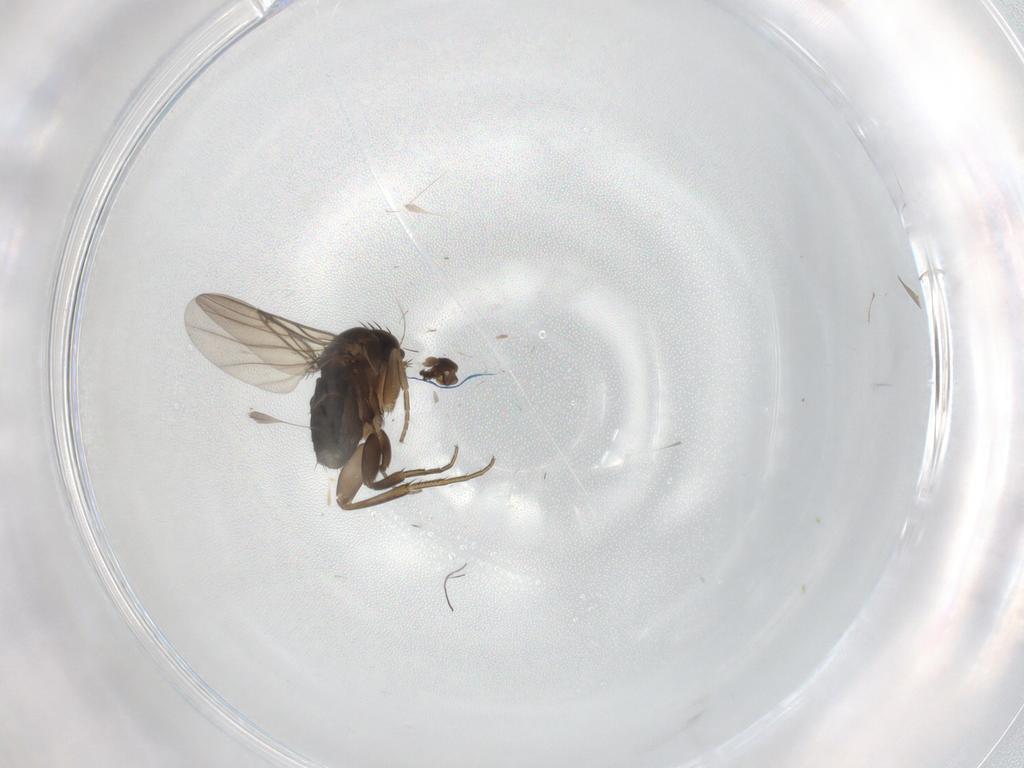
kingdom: Animalia
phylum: Arthropoda
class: Insecta
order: Diptera
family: Phoridae
